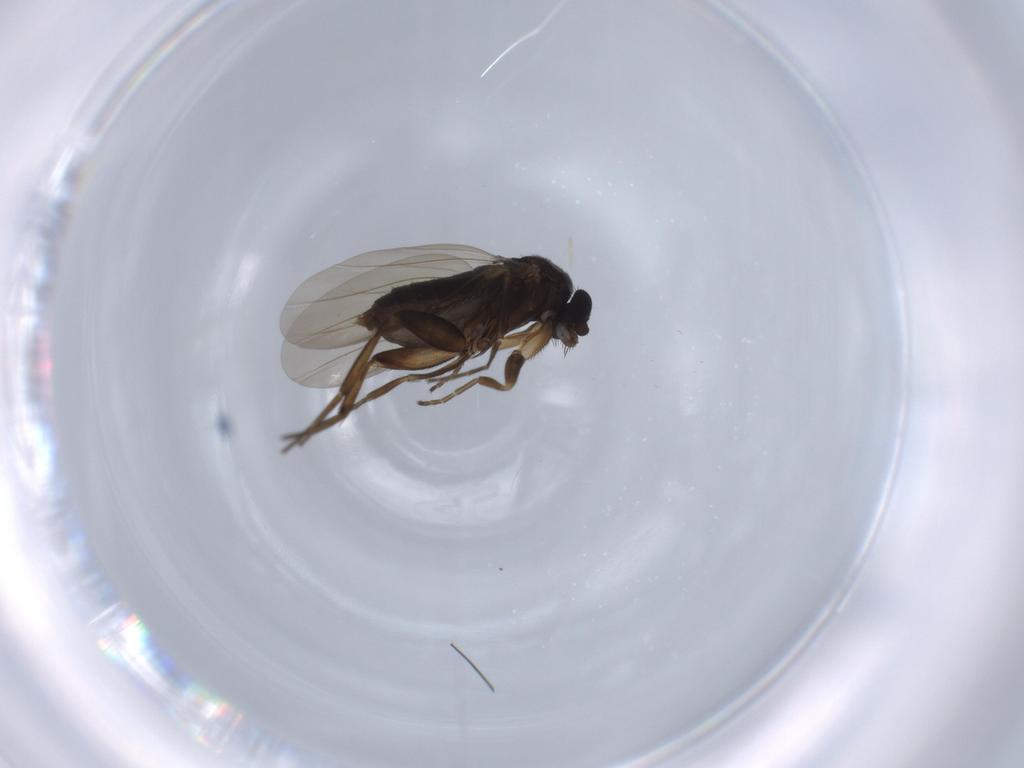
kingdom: Animalia
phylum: Arthropoda
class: Insecta
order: Diptera
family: Phoridae
